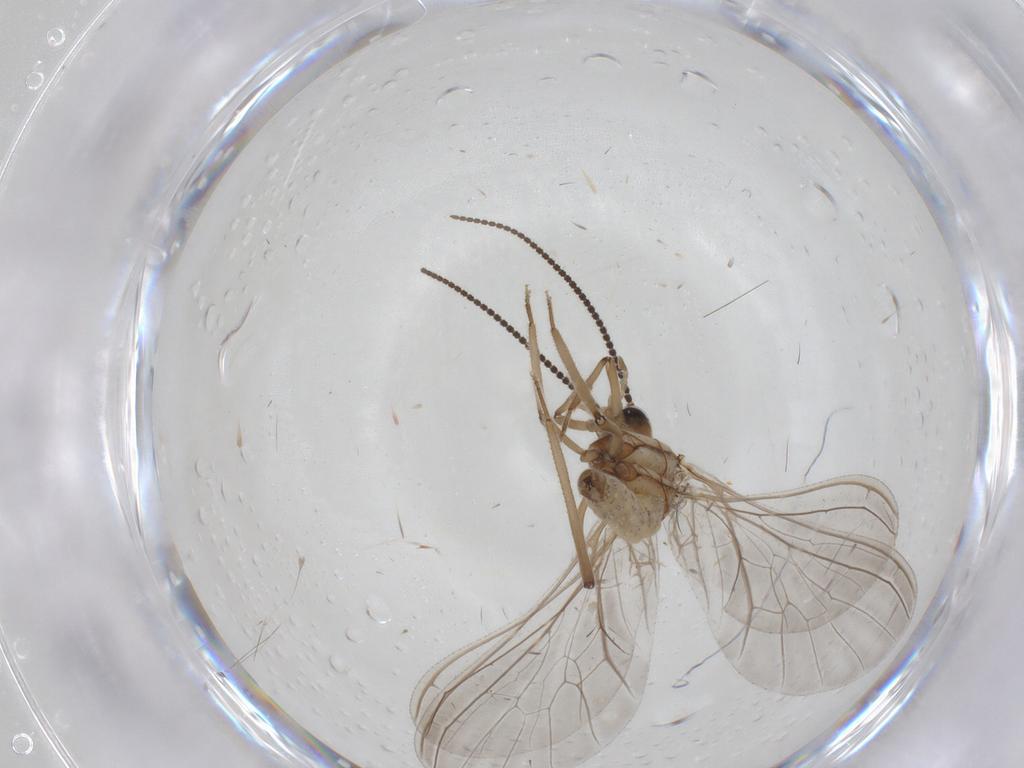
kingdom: Animalia
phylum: Arthropoda
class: Insecta
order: Neuroptera
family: Coniopterygidae
